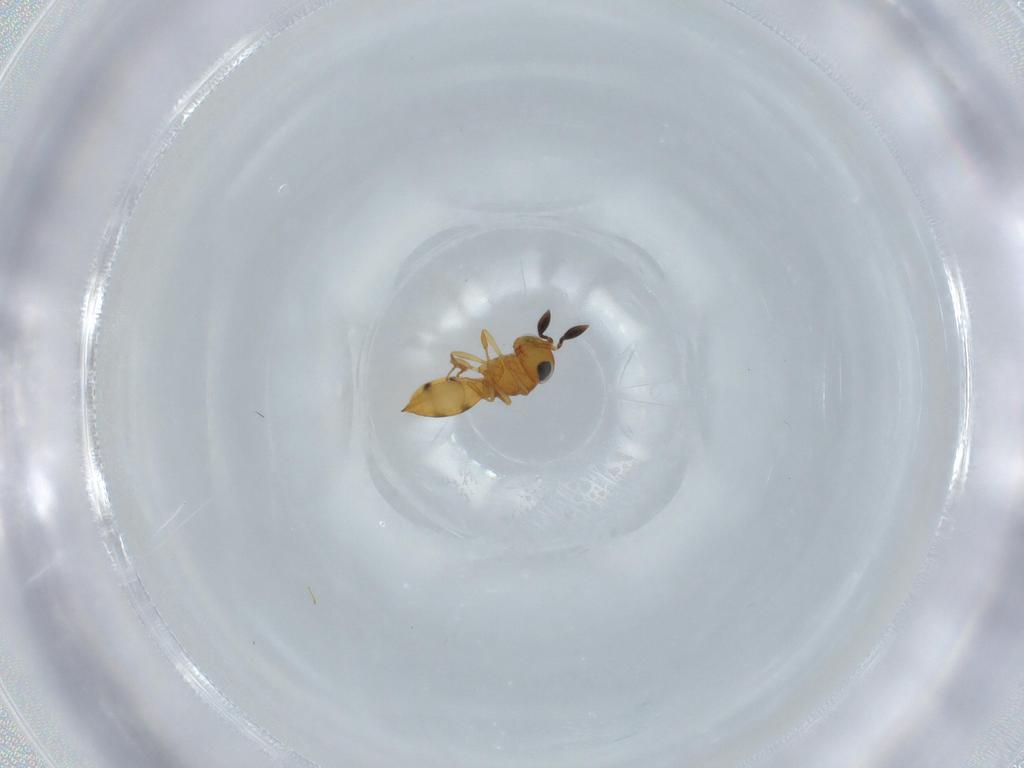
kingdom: Animalia
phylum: Arthropoda
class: Insecta
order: Hymenoptera
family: Scelionidae
